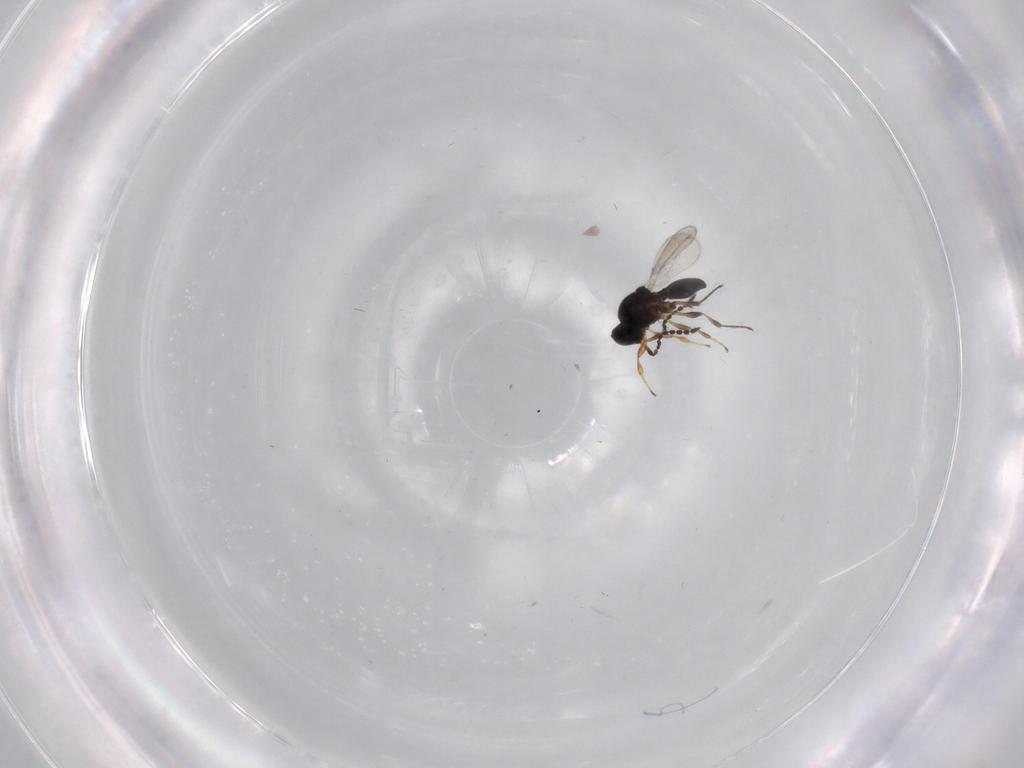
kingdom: Animalia
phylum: Arthropoda
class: Insecta
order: Hymenoptera
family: Platygastridae
